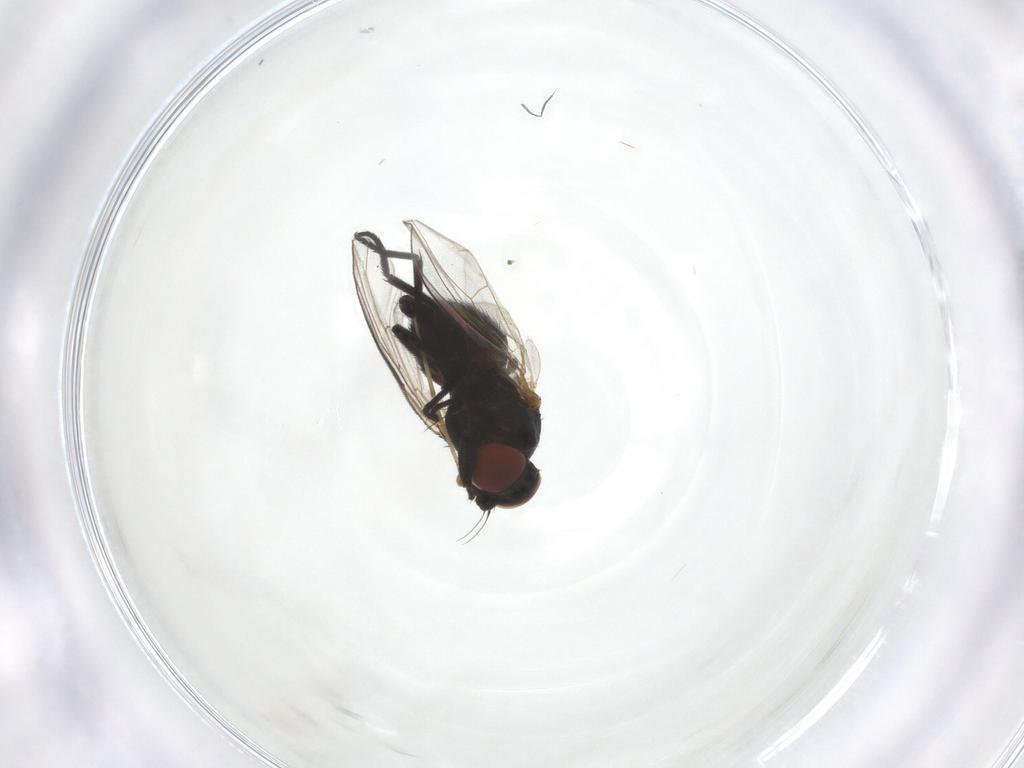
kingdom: Animalia
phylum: Arthropoda
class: Insecta
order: Diptera
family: Agromyzidae
